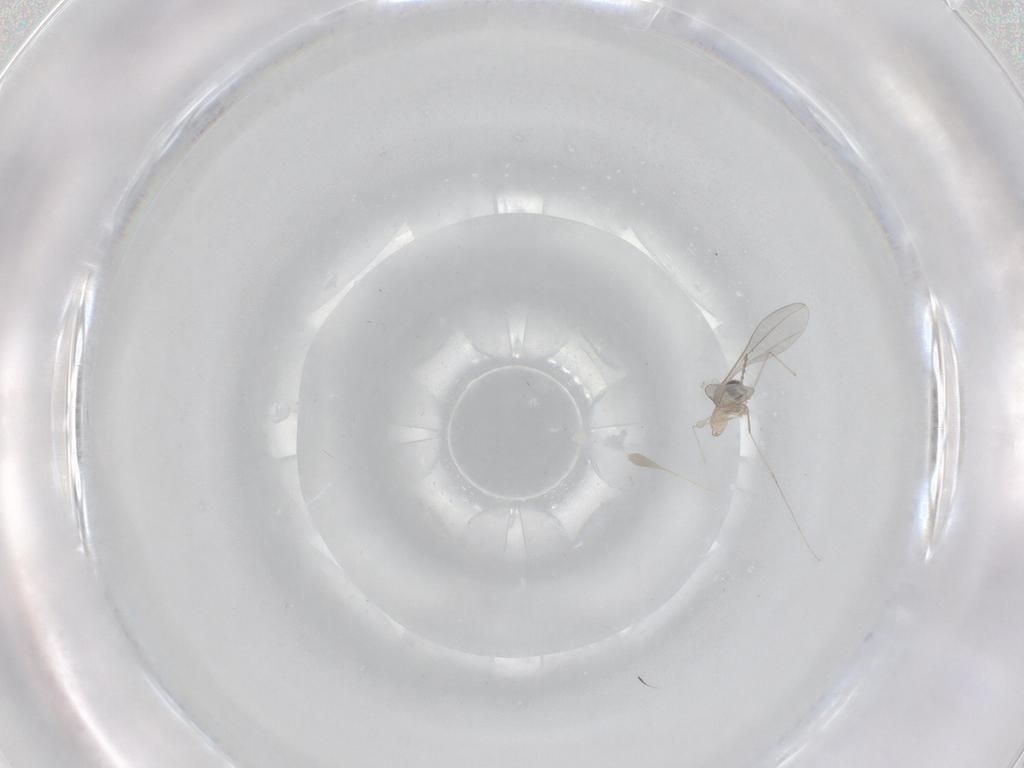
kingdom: Animalia
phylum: Arthropoda
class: Insecta
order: Diptera
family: Psychodidae
